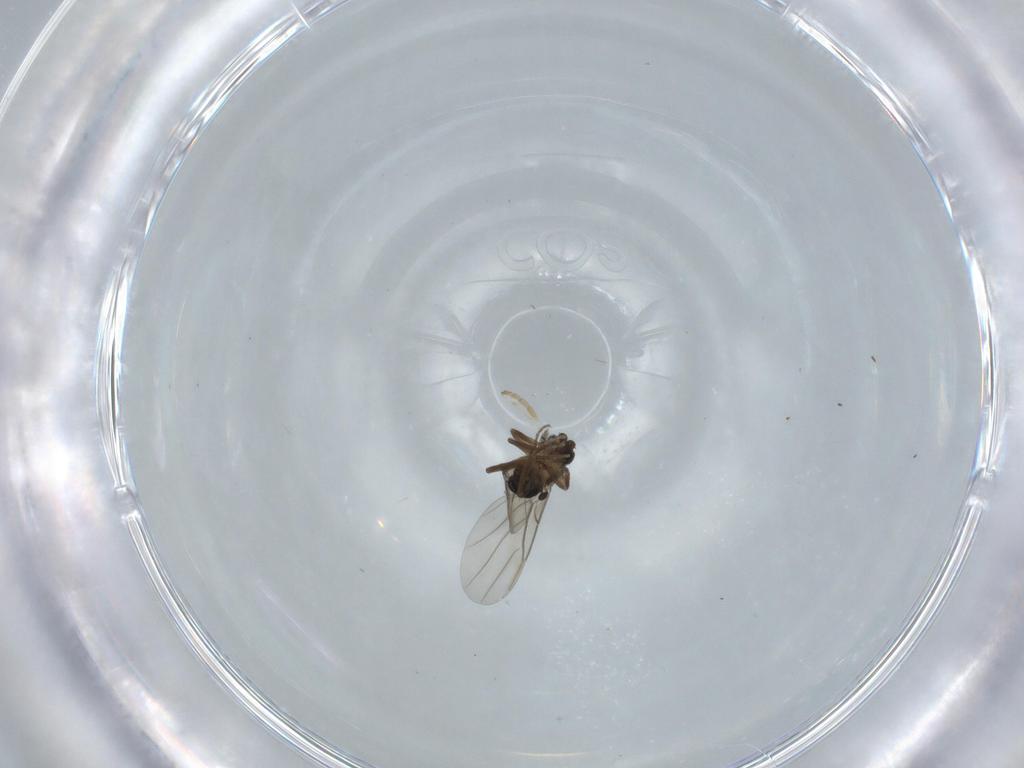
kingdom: Animalia
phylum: Arthropoda
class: Insecta
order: Diptera
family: Phoridae
